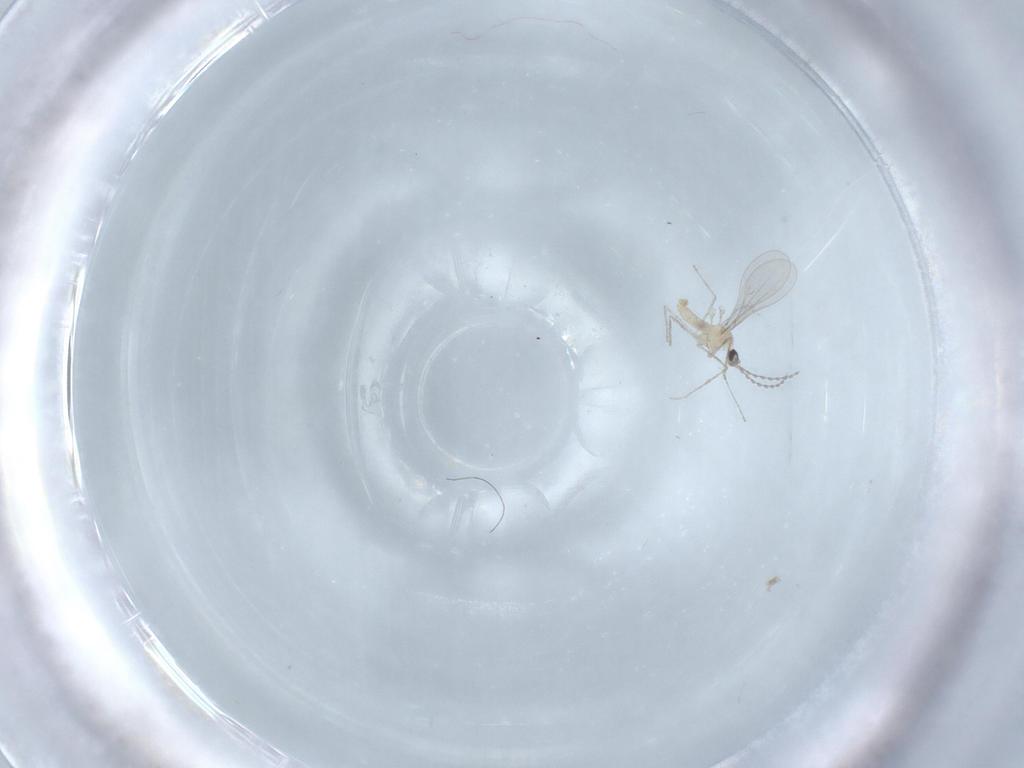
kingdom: Animalia
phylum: Arthropoda
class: Insecta
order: Diptera
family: Cecidomyiidae
